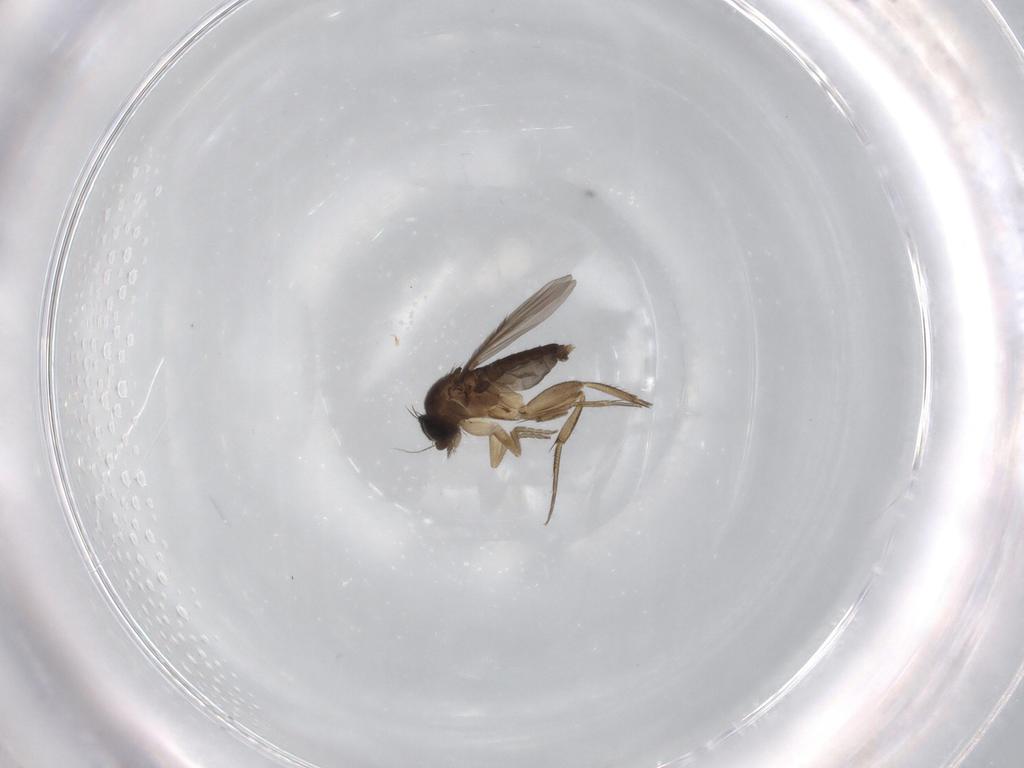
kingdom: Animalia
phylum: Arthropoda
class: Insecta
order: Diptera
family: Phoridae
